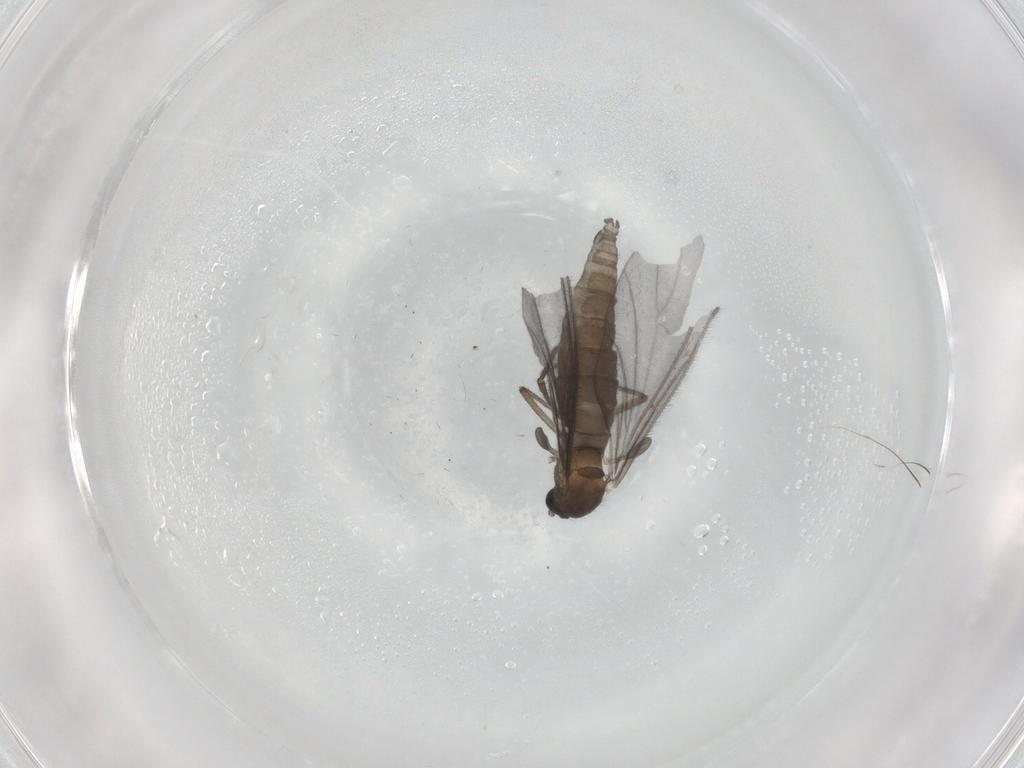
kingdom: Animalia
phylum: Arthropoda
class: Insecta
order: Diptera
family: Sciaridae
